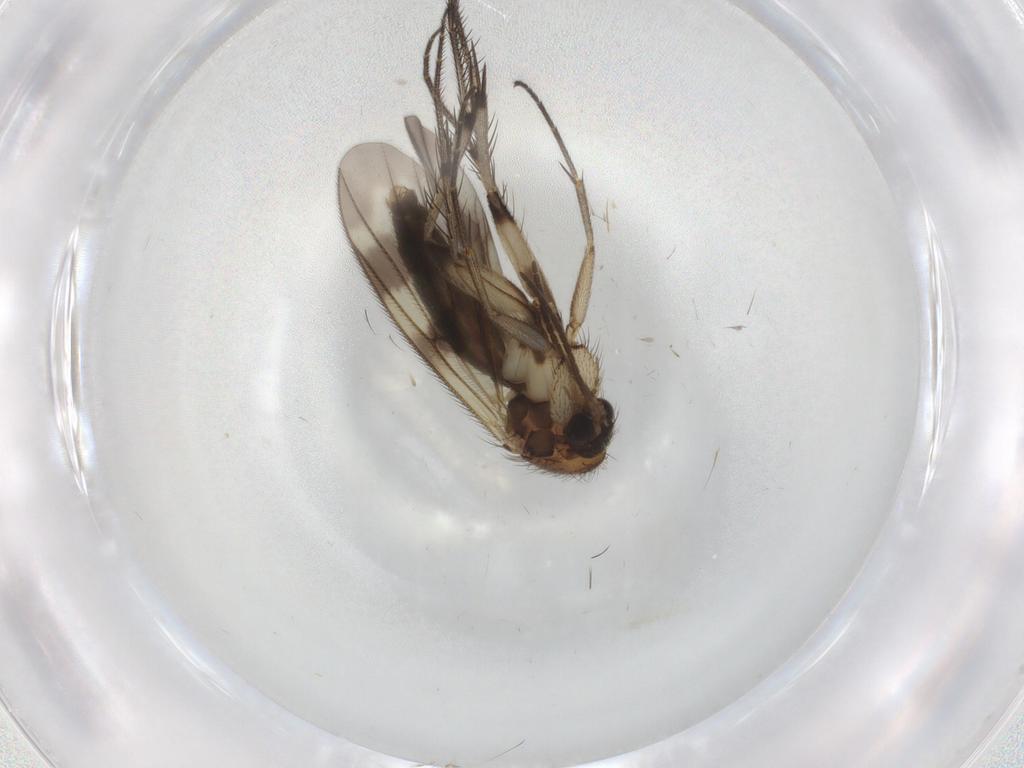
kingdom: Animalia
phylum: Arthropoda
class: Insecta
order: Diptera
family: Mycetophilidae
